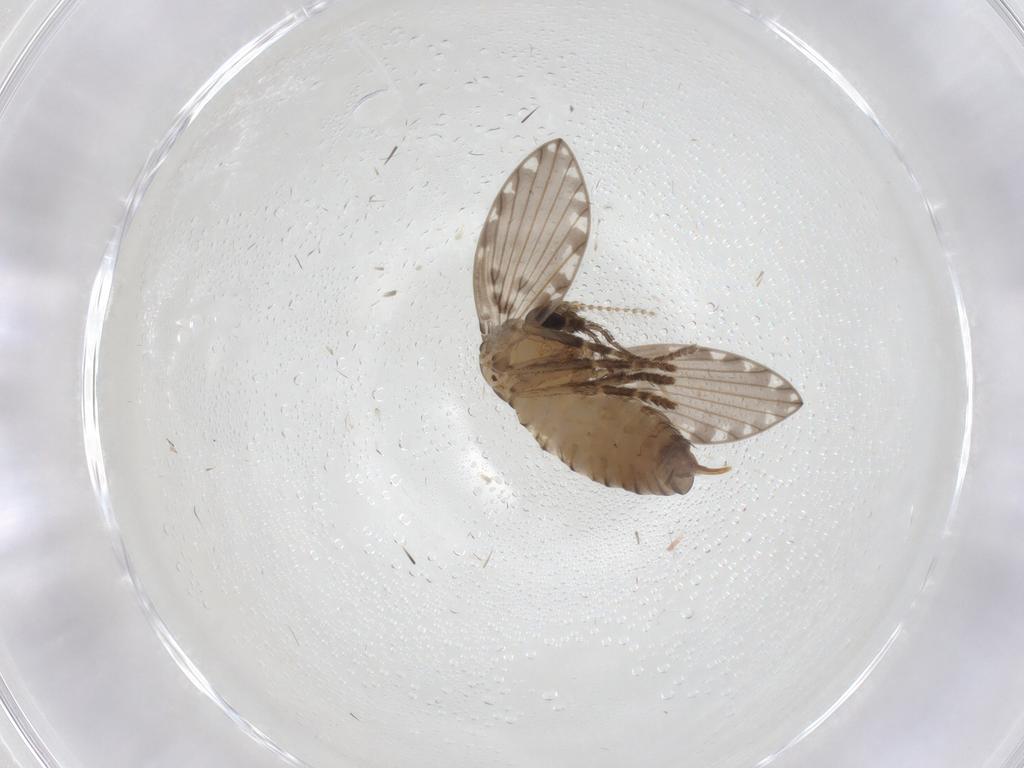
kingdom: Animalia
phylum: Arthropoda
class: Insecta
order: Diptera
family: Psychodidae
